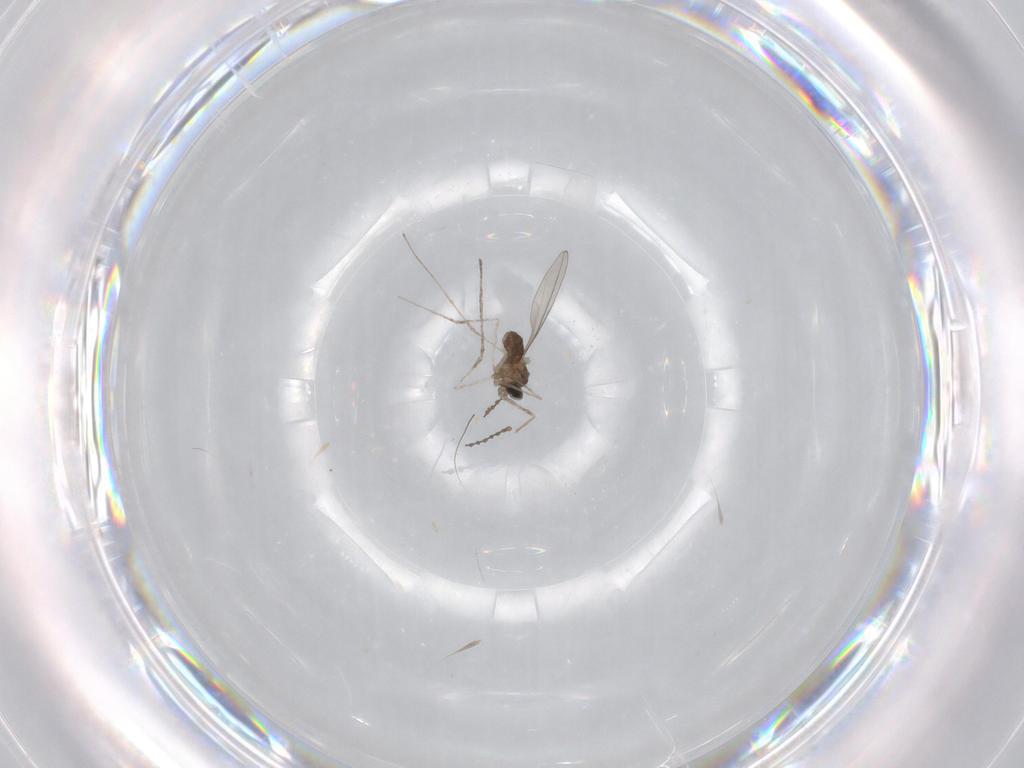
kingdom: Animalia
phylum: Arthropoda
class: Insecta
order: Diptera
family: Cecidomyiidae
